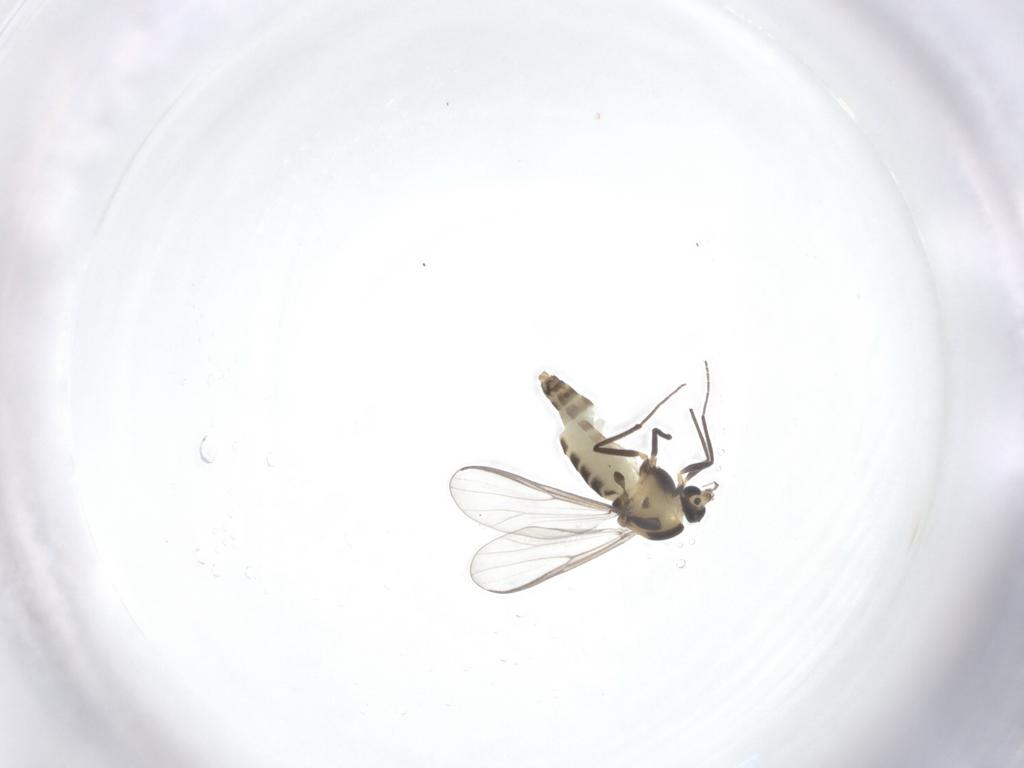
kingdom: Animalia
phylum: Arthropoda
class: Insecta
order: Diptera
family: Chironomidae
